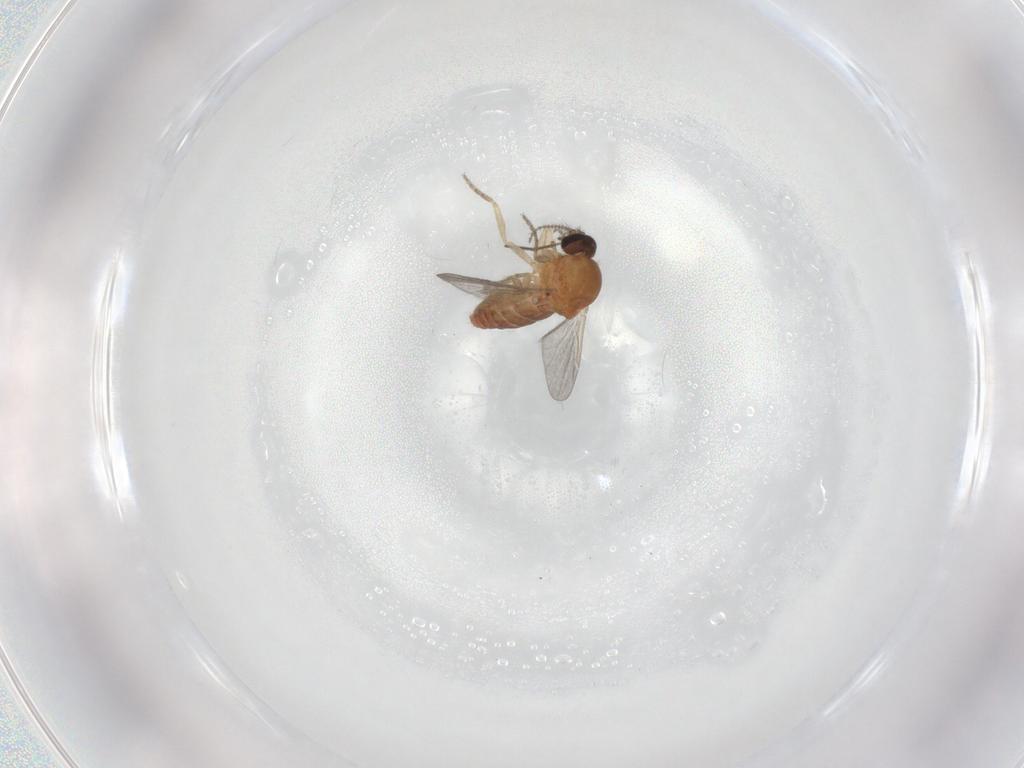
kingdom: Animalia
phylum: Arthropoda
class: Insecta
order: Diptera
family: Ceratopogonidae
